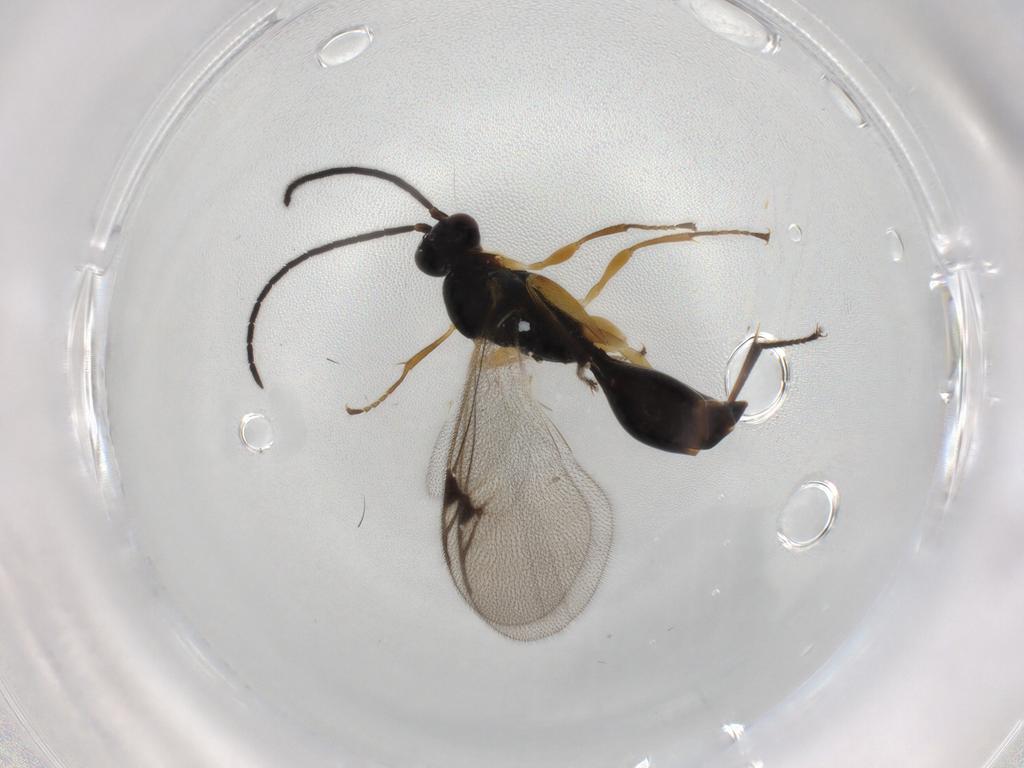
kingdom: Animalia
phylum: Arthropoda
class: Insecta
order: Hymenoptera
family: Proctotrupidae
